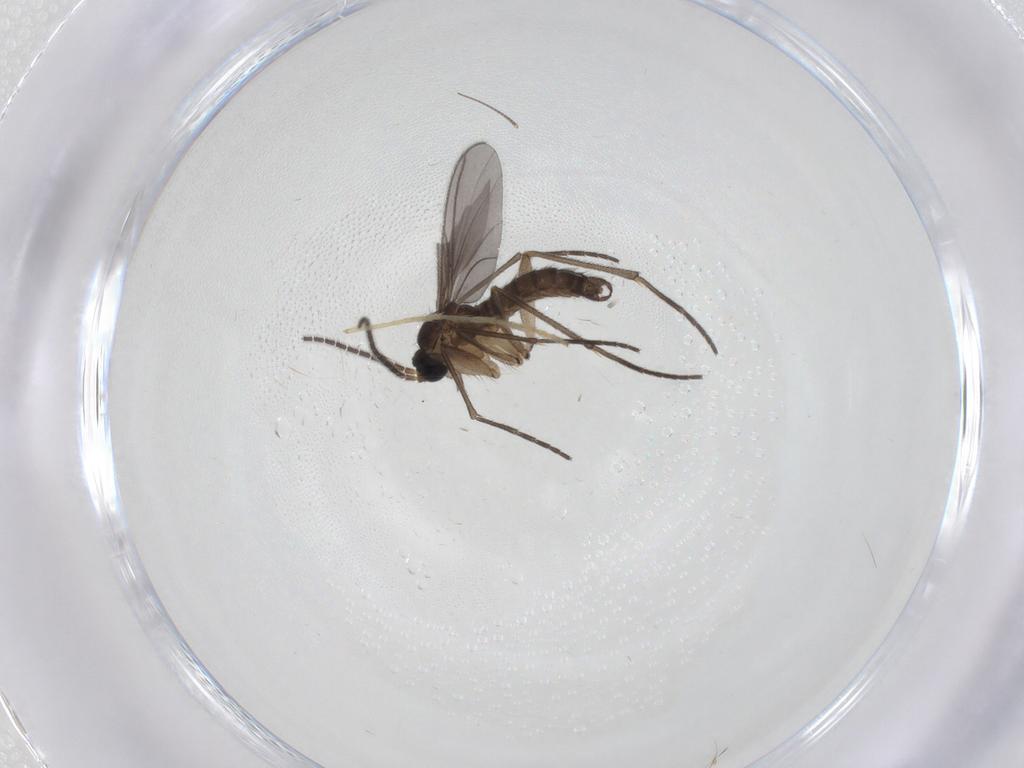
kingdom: Animalia
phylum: Arthropoda
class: Insecta
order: Diptera
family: Sciaridae
